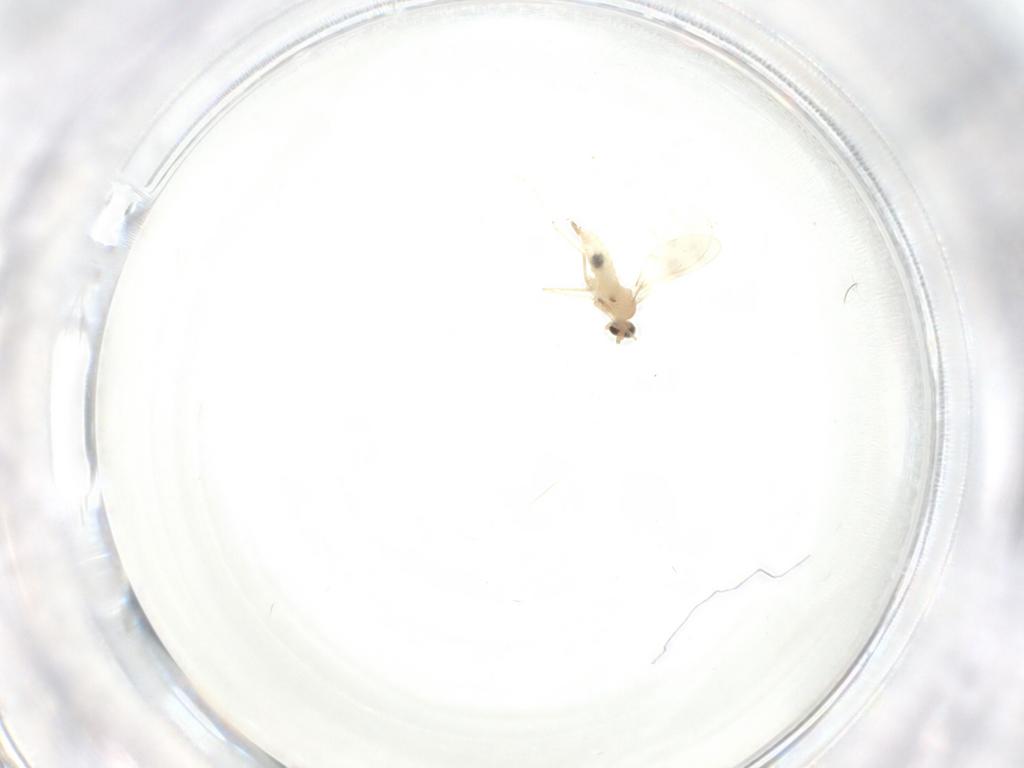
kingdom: Animalia
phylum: Arthropoda
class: Insecta
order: Diptera
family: Cecidomyiidae
